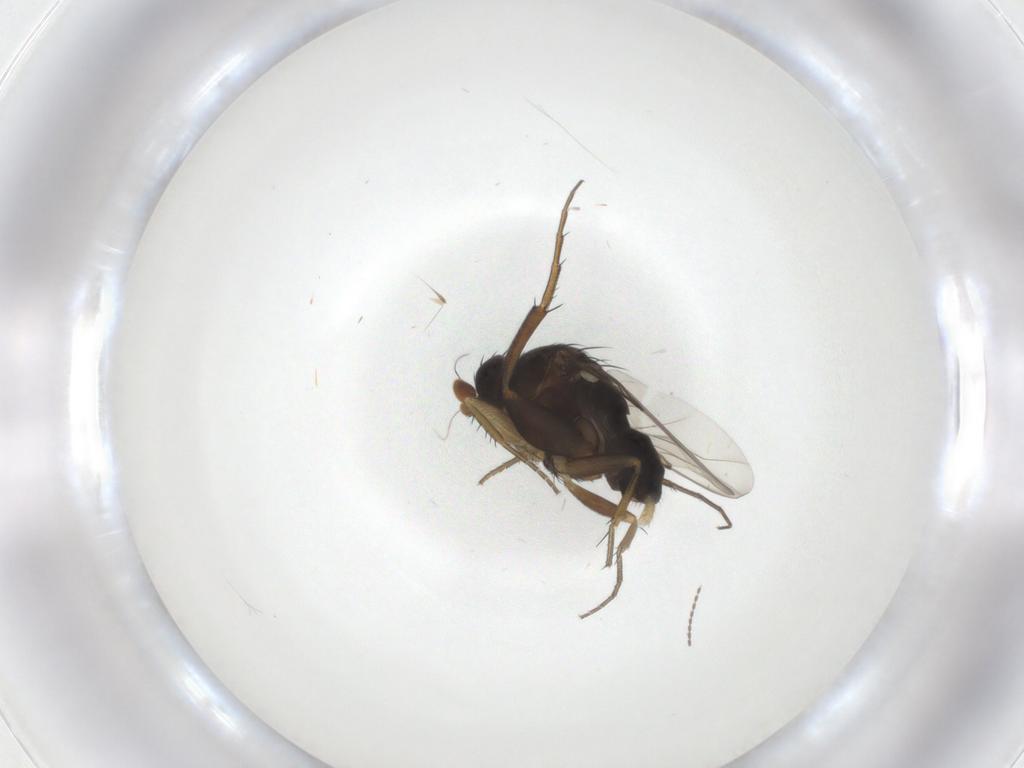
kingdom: Animalia
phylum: Arthropoda
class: Insecta
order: Diptera
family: Phoridae
